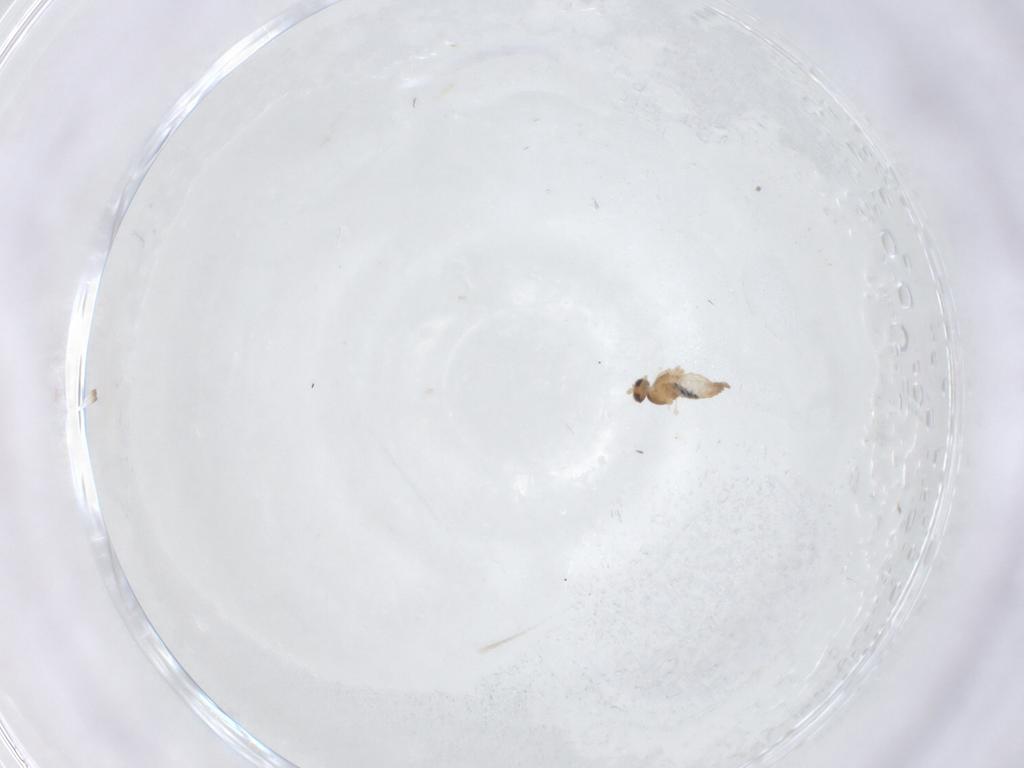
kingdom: Animalia
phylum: Arthropoda
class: Insecta
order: Diptera
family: Cecidomyiidae
